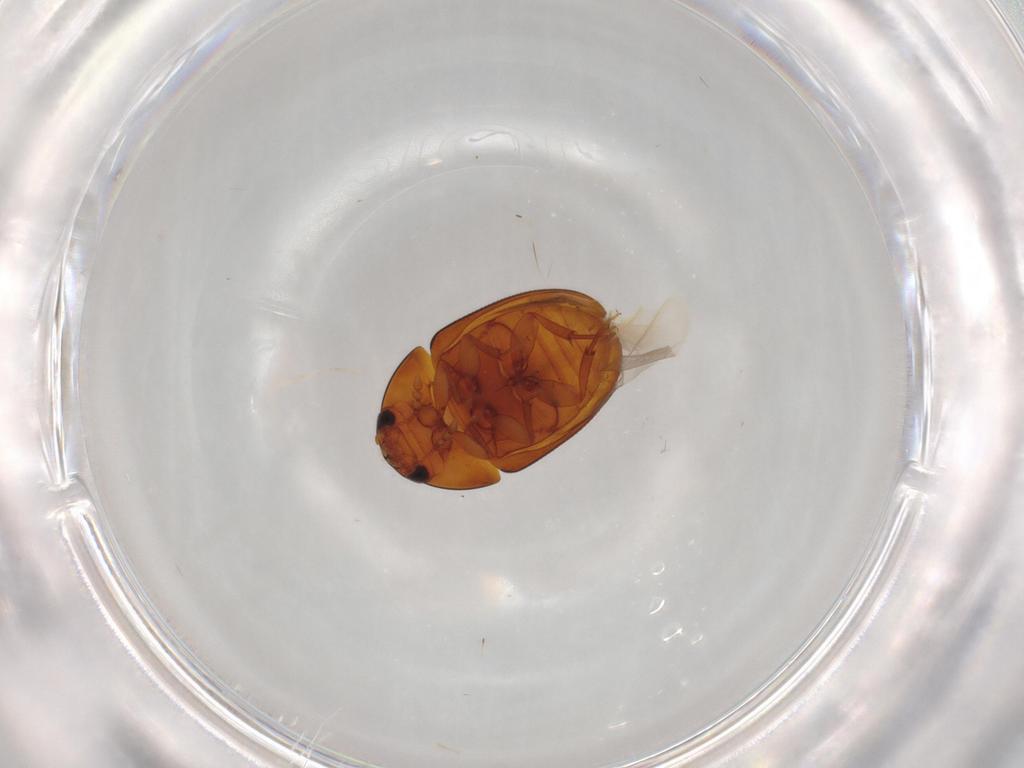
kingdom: Animalia
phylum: Arthropoda
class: Insecta
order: Coleoptera
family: Phalacridae
